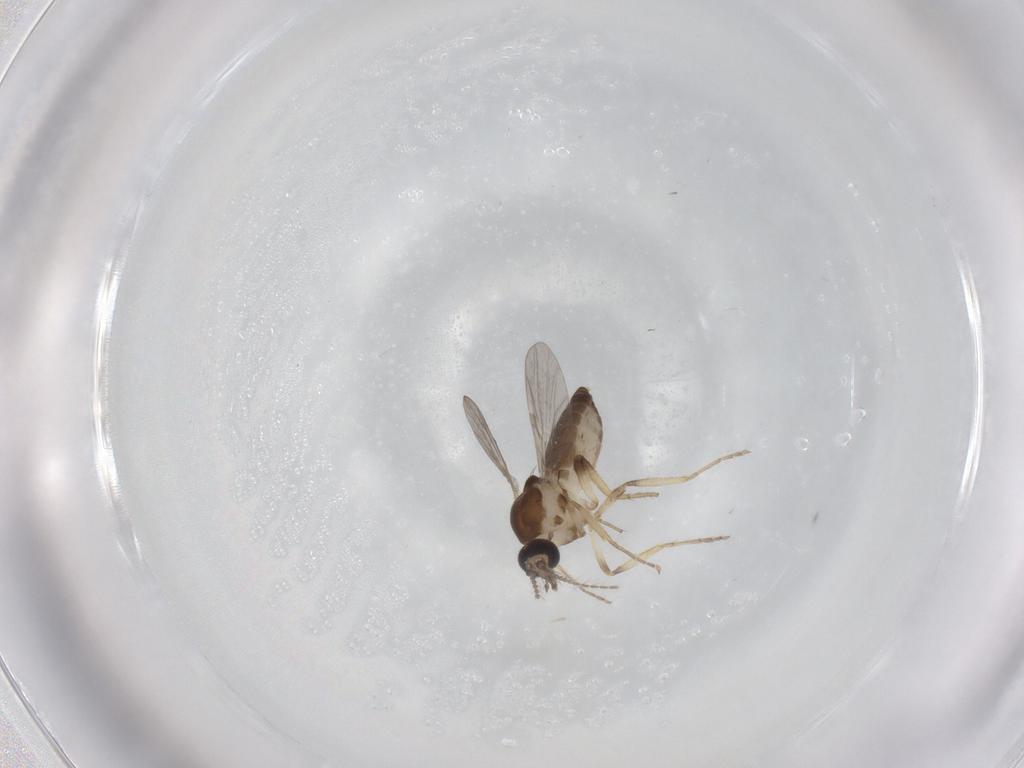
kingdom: Animalia
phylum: Arthropoda
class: Insecta
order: Diptera
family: Ceratopogonidae
